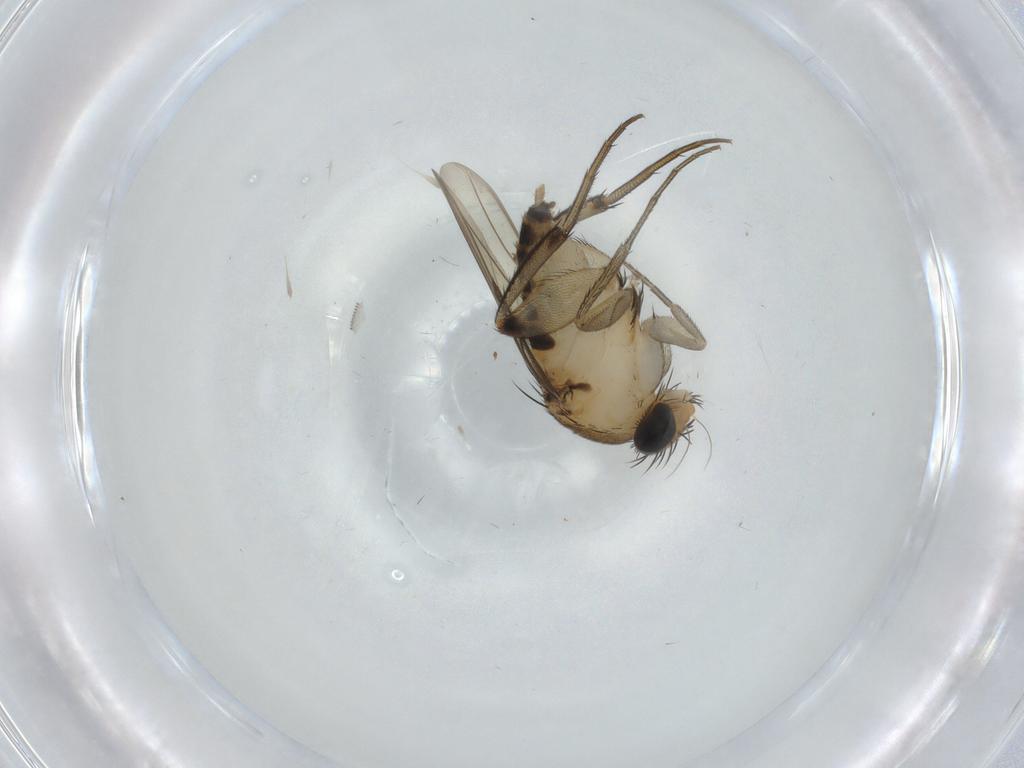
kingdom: Animalia
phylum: Arthropoda
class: Insecta
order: Diptera
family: Phoridae
